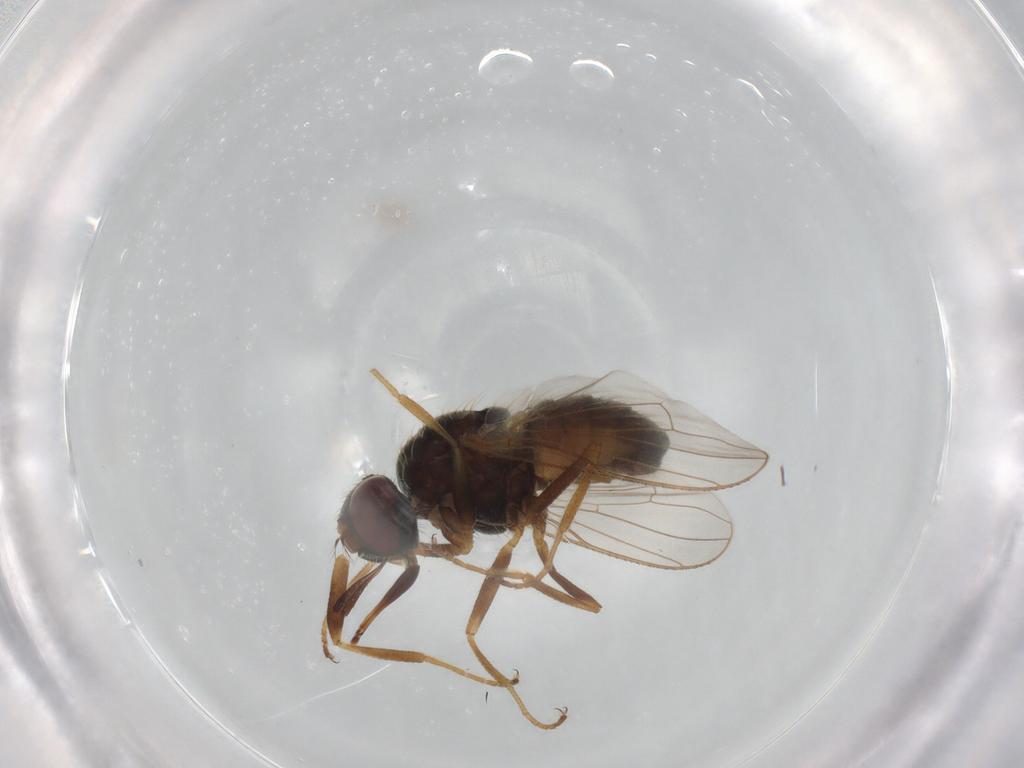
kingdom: Animalia
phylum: Arthropoda
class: Insecta
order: Diptera
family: Muscidae
